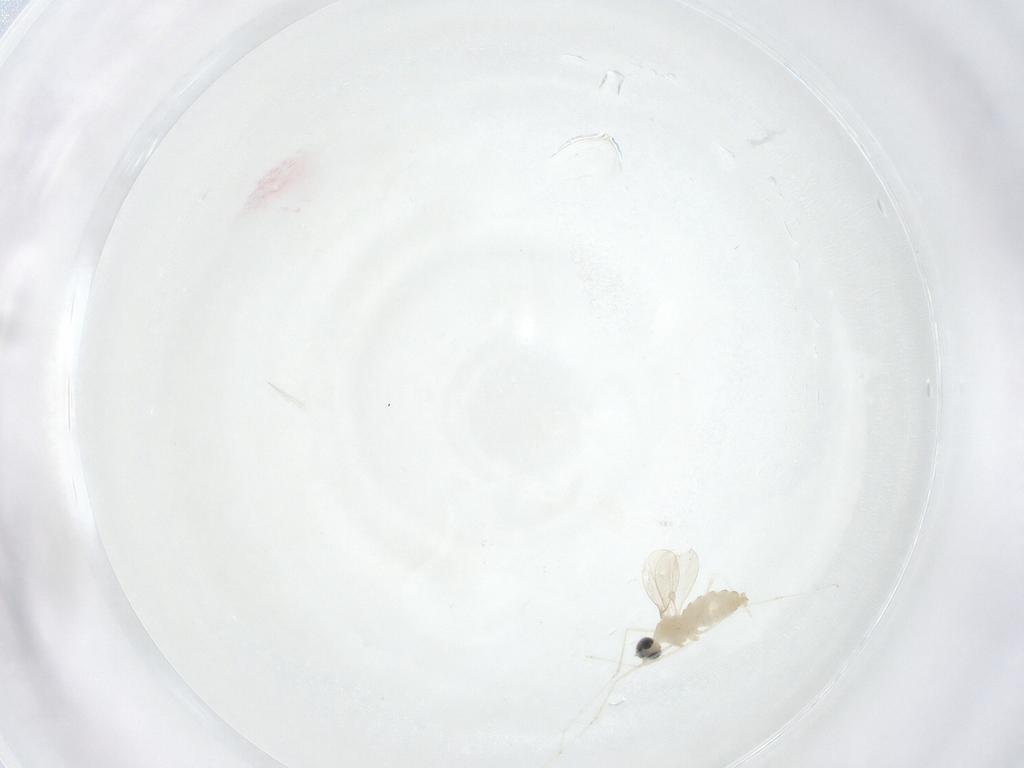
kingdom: Animalia
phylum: Arthropoda
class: Insecta
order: Diptera
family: Cecidomyiidae
